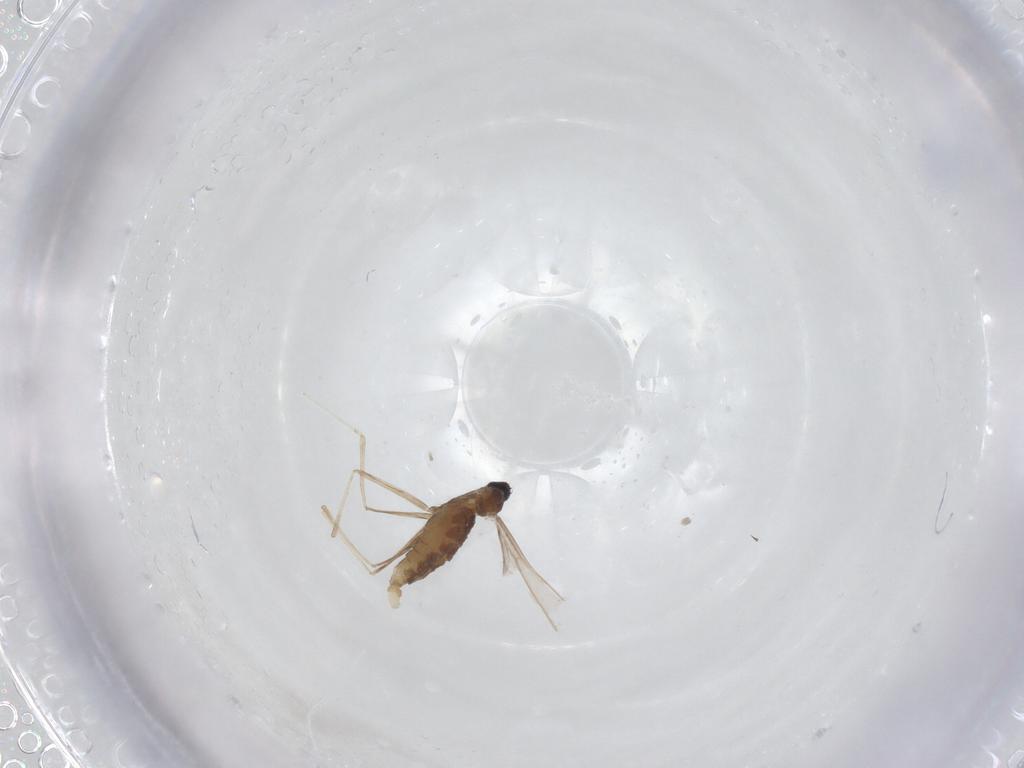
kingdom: Animalia
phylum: Arthropoda
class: Insecta
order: Diptera
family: Cecidomyiidae
